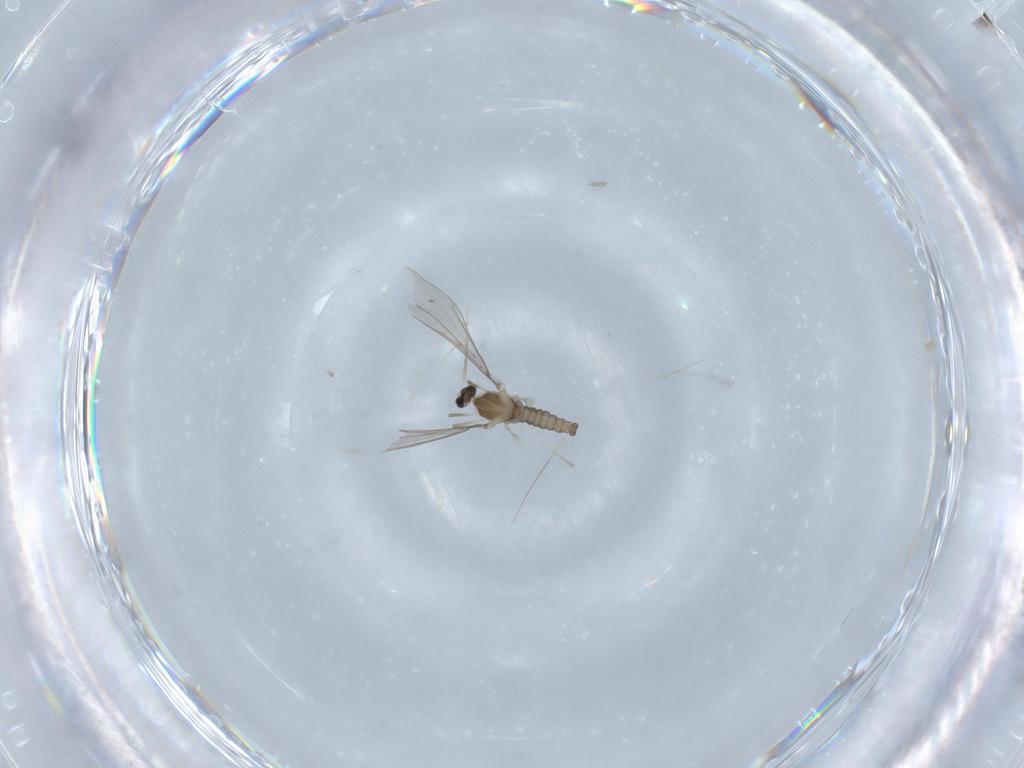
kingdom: Animalia
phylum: Arthropoda
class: Insecta
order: Diptera
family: Cecidomyiidae
